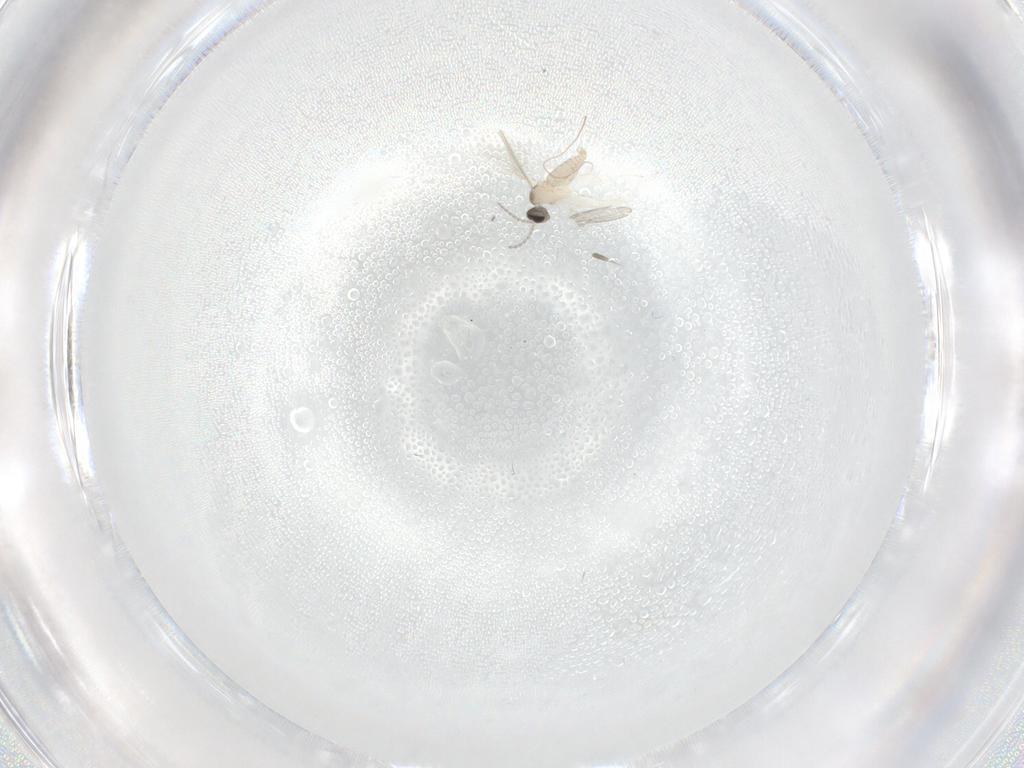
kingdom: Animalia
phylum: Arthropoda
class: Insecta
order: Diptera
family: Cecidomyiidae
